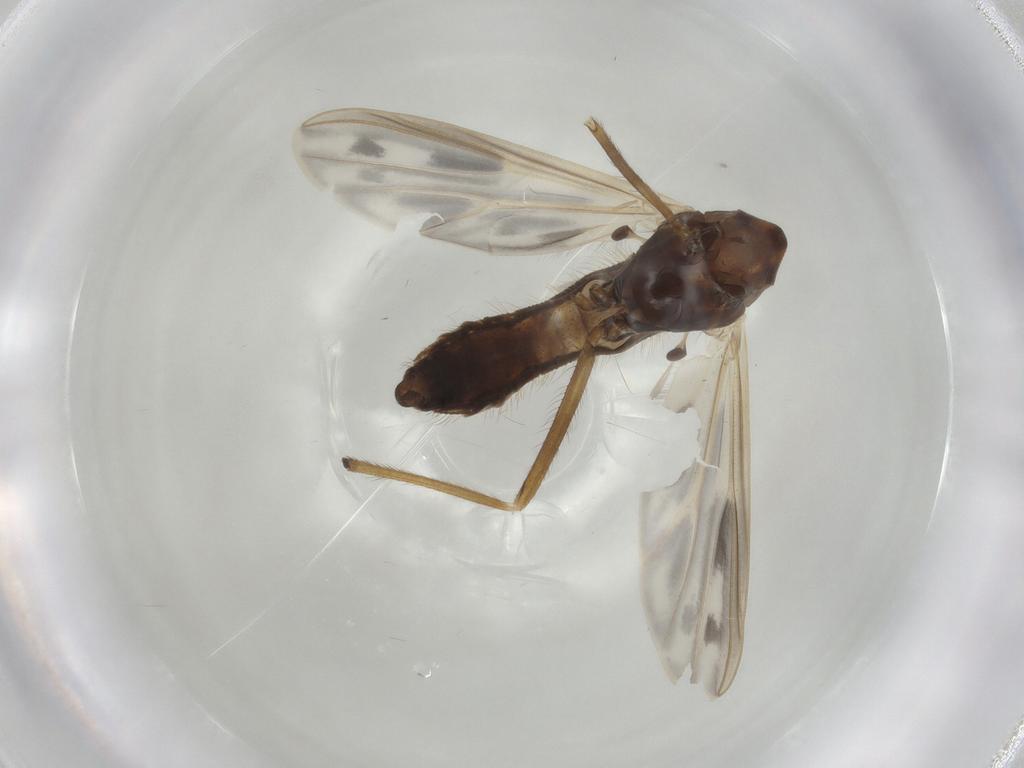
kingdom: Animalia
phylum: Arthropoda
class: Insecta
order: Diptera
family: Chironomidae
